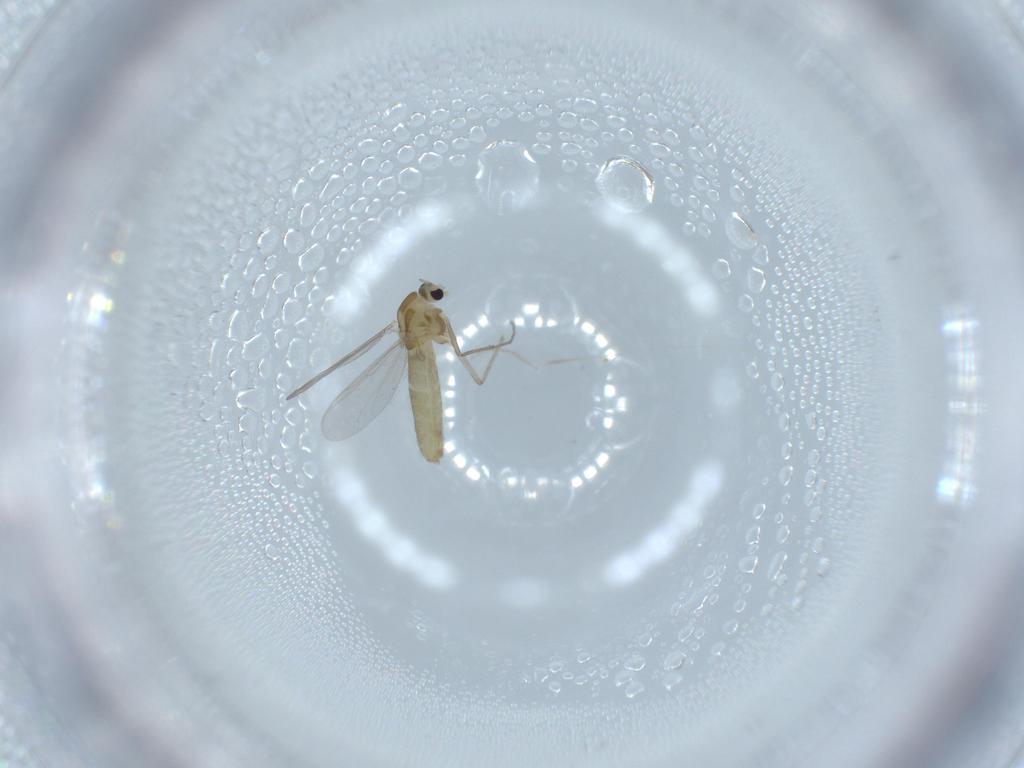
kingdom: Animalia
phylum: Arthropoda
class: Insecta
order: Diptera
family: Chironomidae
